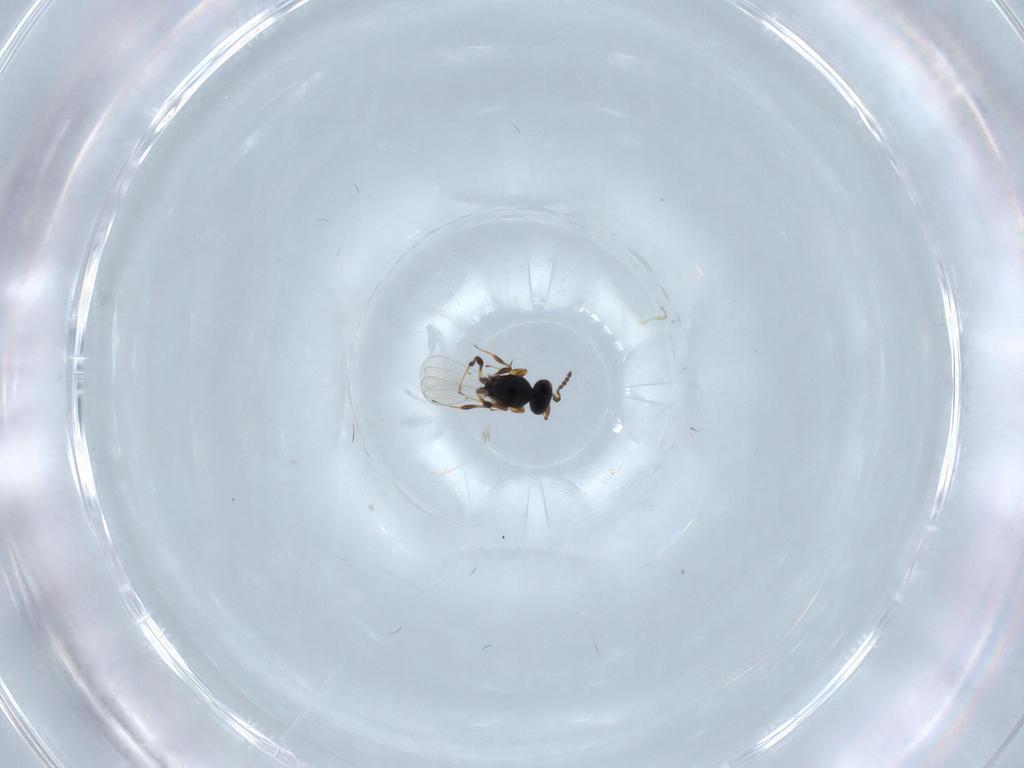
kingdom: Animalia
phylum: Arthropoda
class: Insecta
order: Hymenoptera
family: Platygastridae
